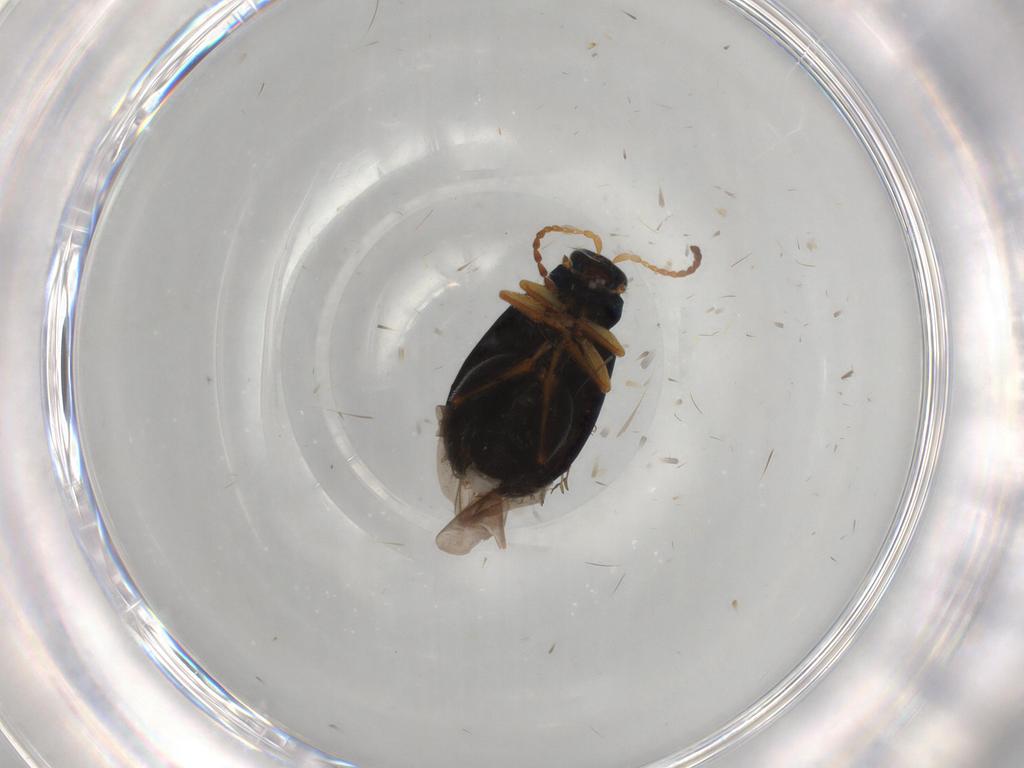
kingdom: Animalia
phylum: Arthropoda
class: Insecta
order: Coleoptera
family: Chrysomelidae
